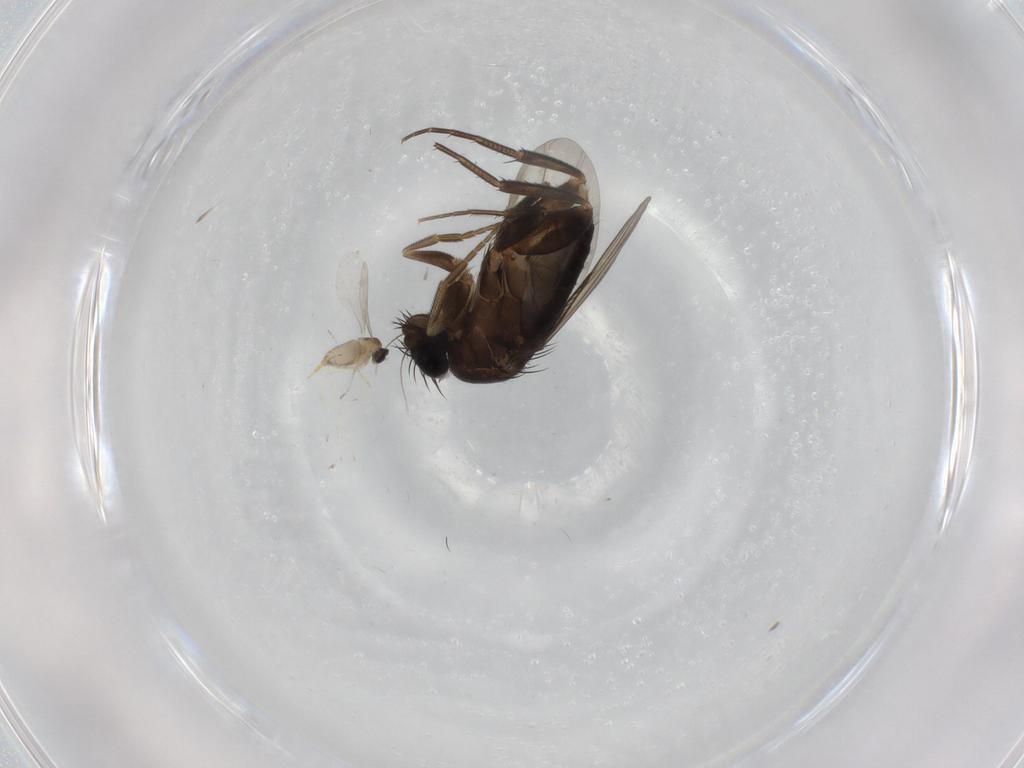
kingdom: Animalia
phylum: Arthropoda
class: Insecta
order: Diptera
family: Phoridae
